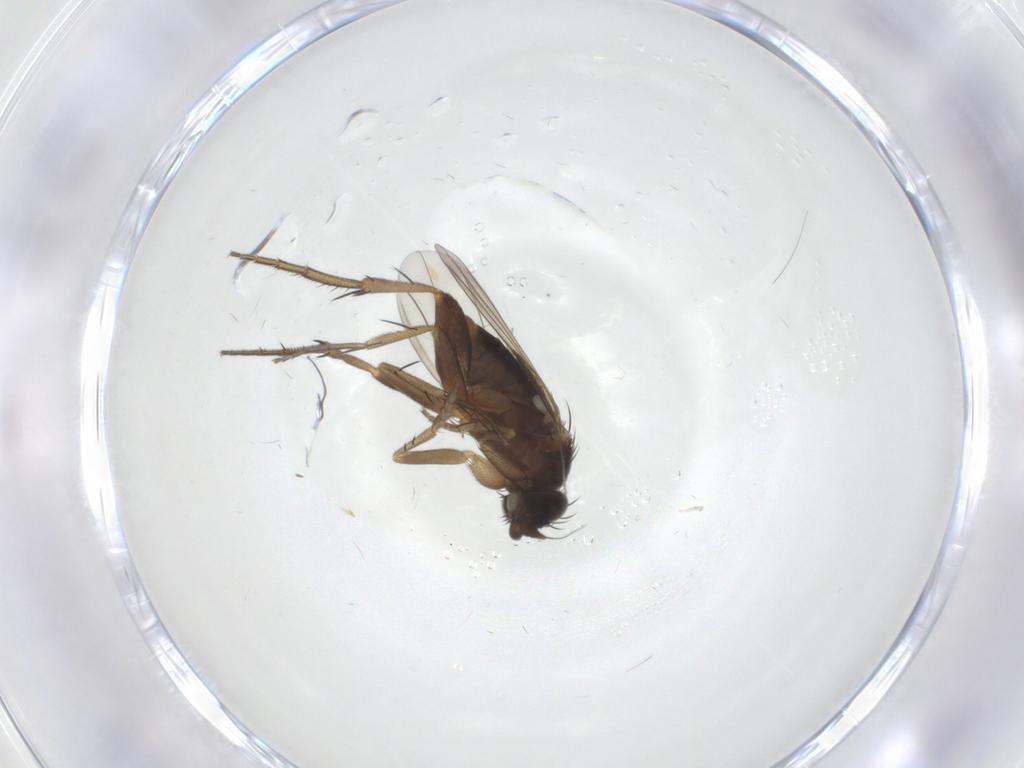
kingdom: Animalia
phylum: Arthropoda
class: Insecta
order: Diptera
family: Phoridae
